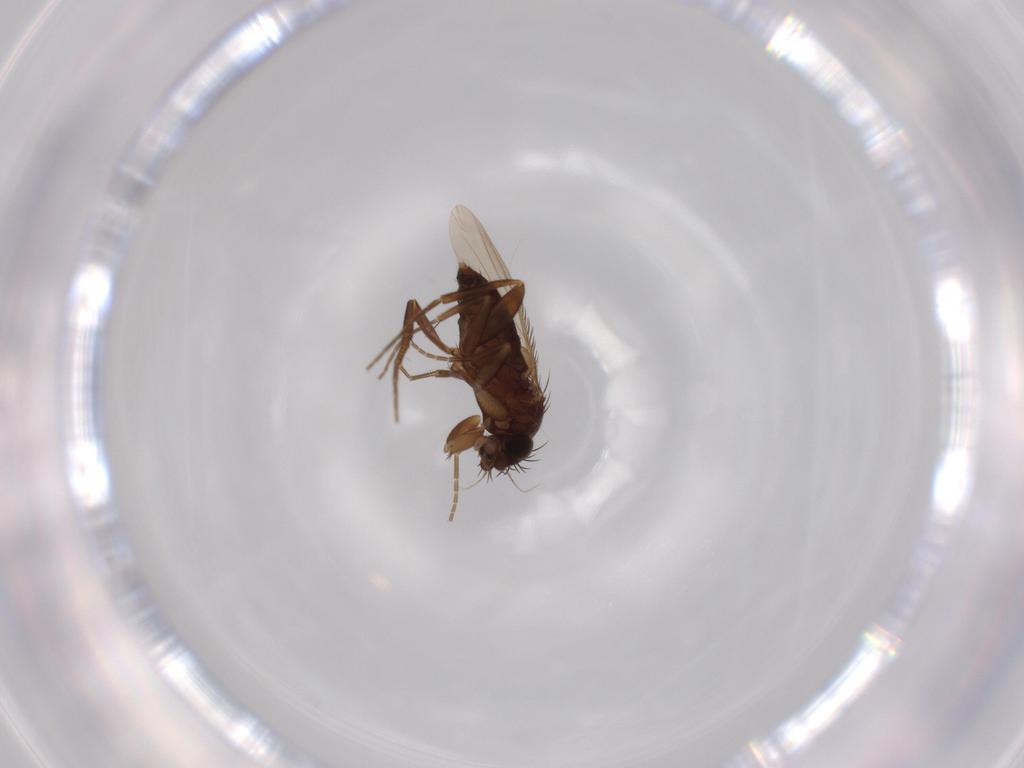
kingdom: Animalia
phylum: Arthropoda
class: Insecta
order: Diptera
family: Phoridae
